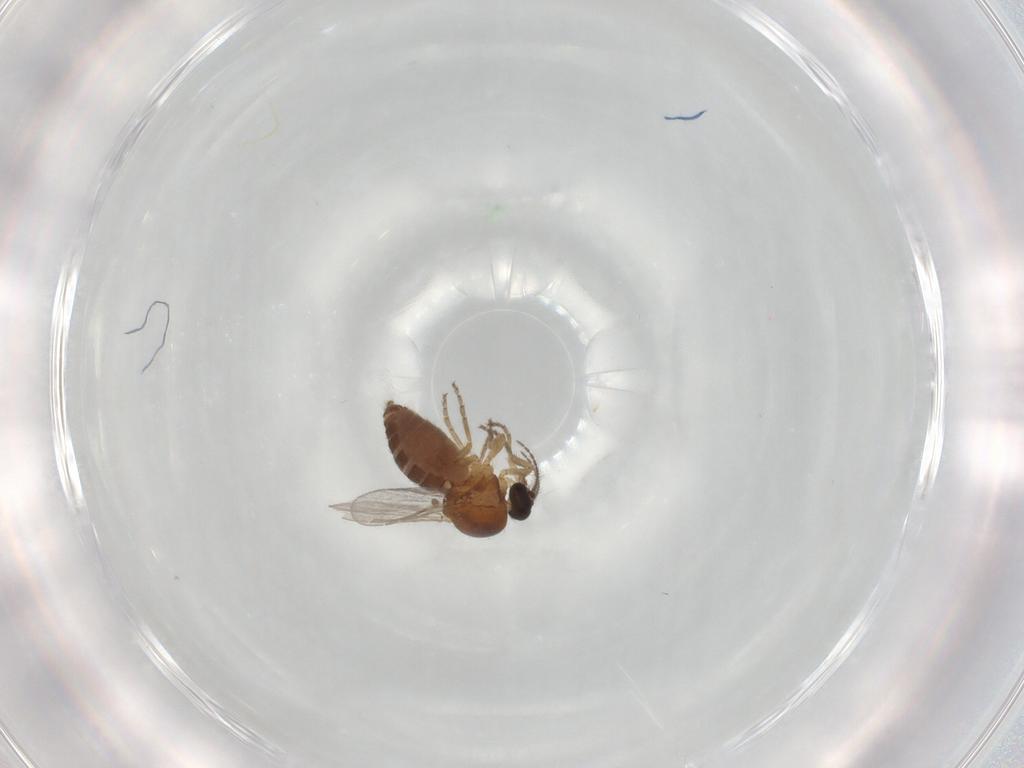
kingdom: Animalia
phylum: Arthropoda
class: Insecta
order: Diptera
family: Ceratopogonidae
